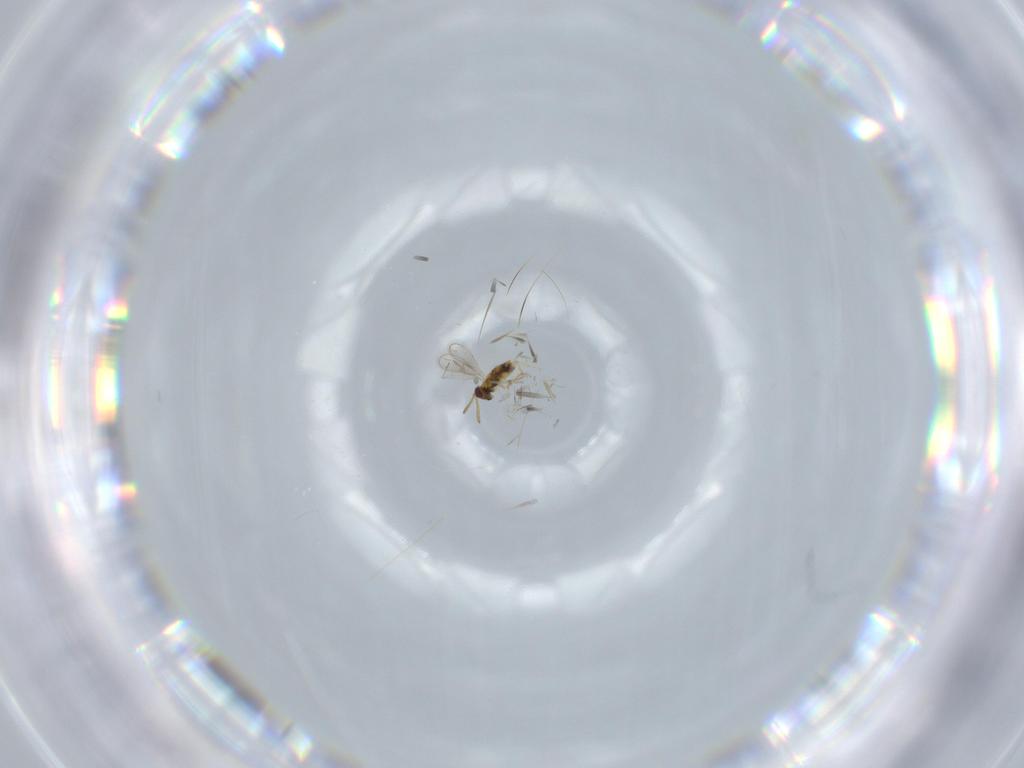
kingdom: Animalia
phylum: Arthropoda
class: Insecta
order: Hymenoptera
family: Aphelinidae
